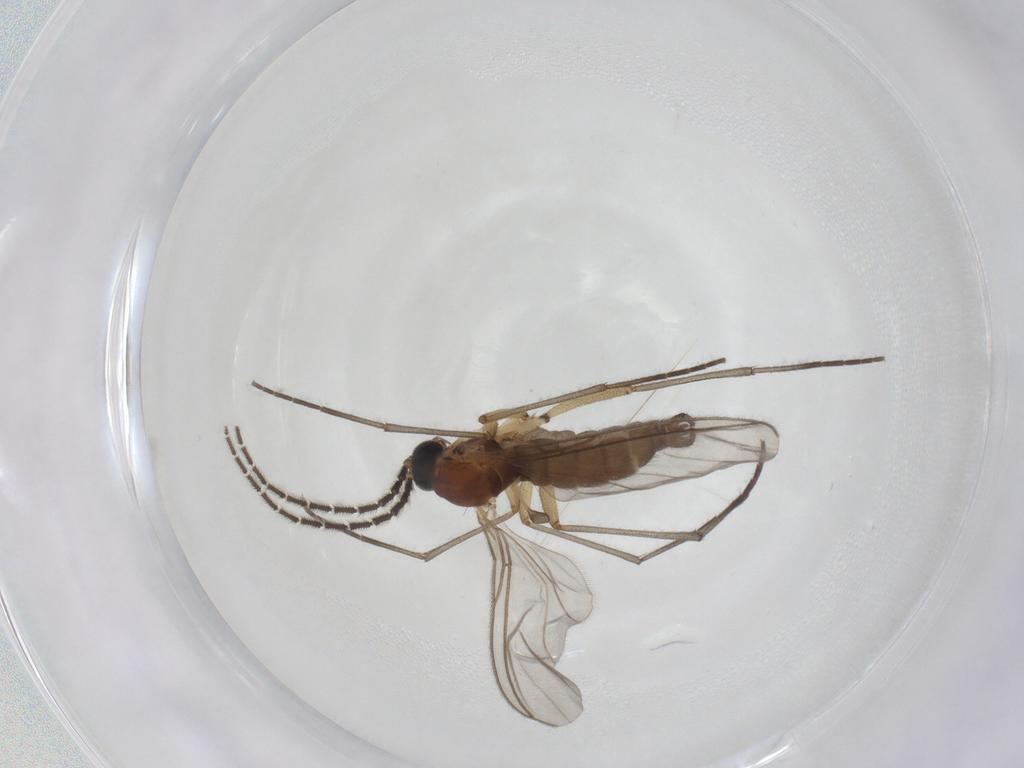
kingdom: Animalia
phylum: Arthropoda
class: Insecta
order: Diptera
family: Sciaridae
